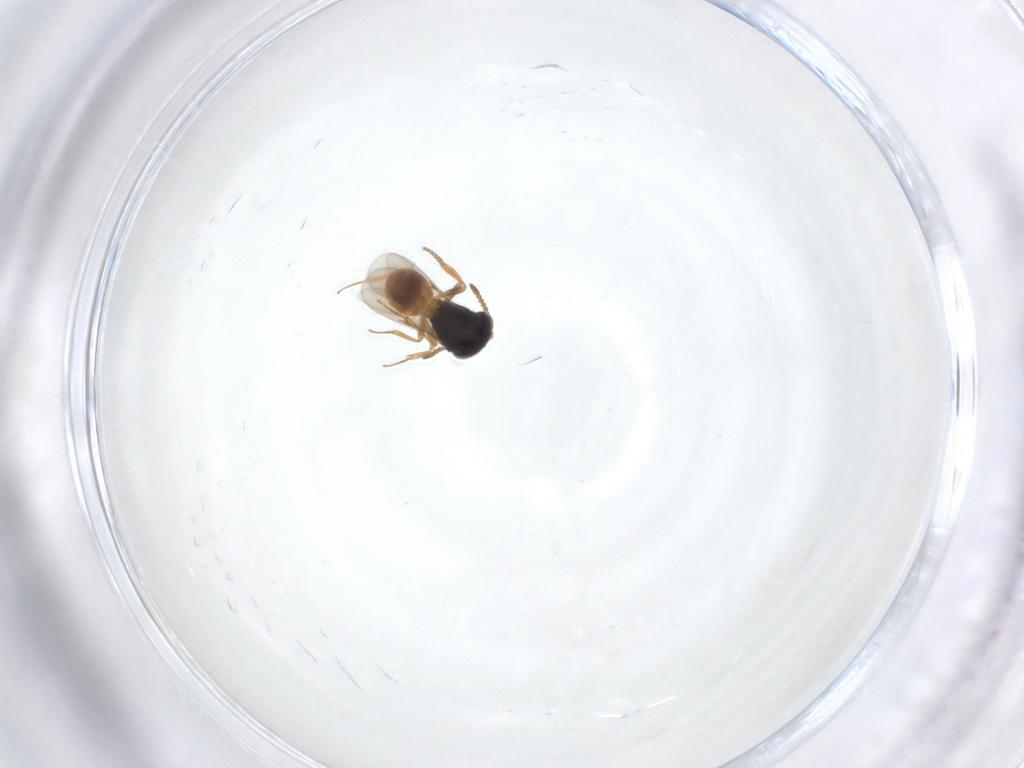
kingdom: Animalia
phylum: Arthropoda
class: Insecta
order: Hymenoptera
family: Scelionidae
